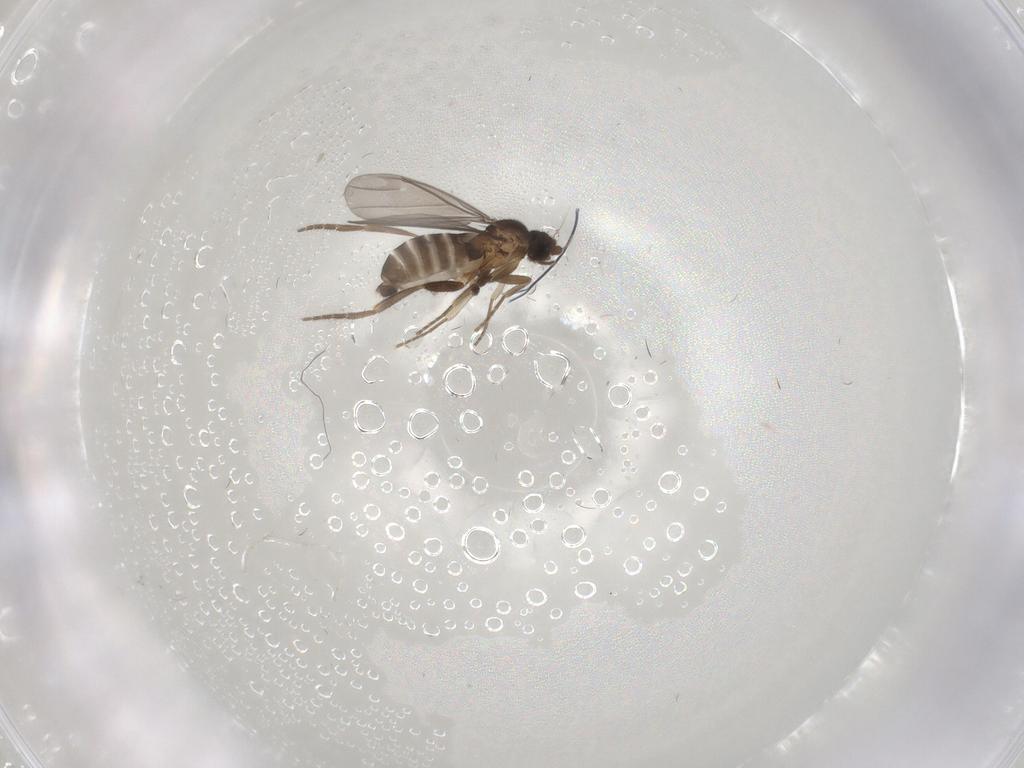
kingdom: Animalia
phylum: Arthropoda
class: Insecta
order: Diptera
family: Phoridae
